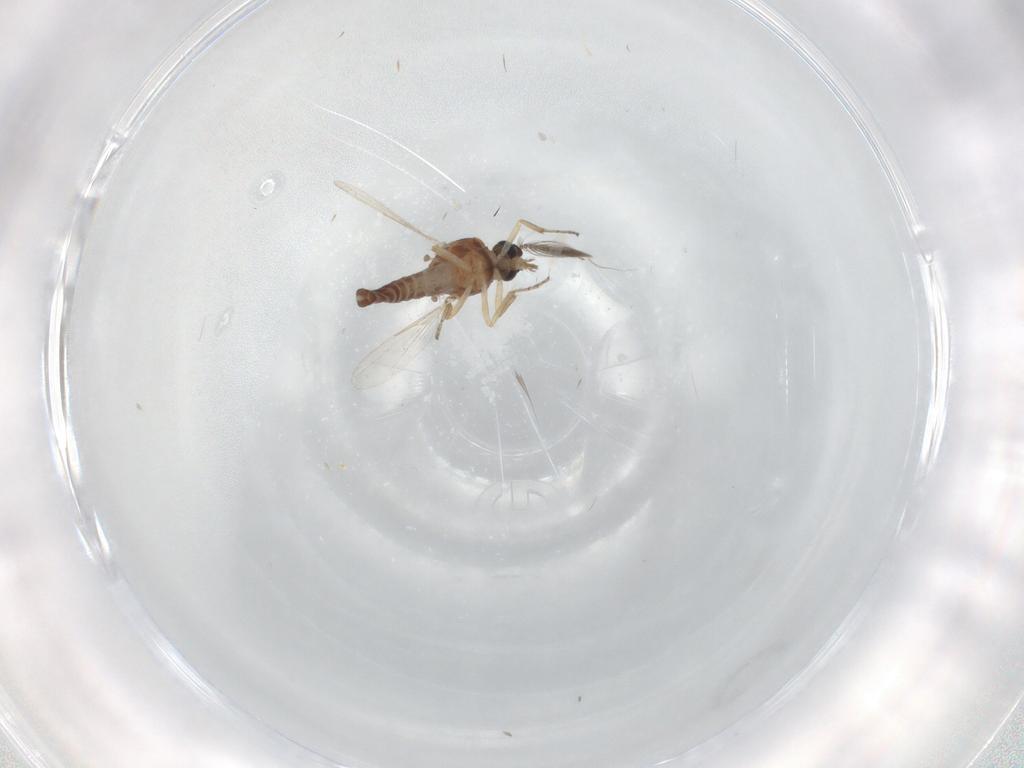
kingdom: Animalia
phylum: Arthropoda
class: Insecta
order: Diptera
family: Ceratopogonidae
